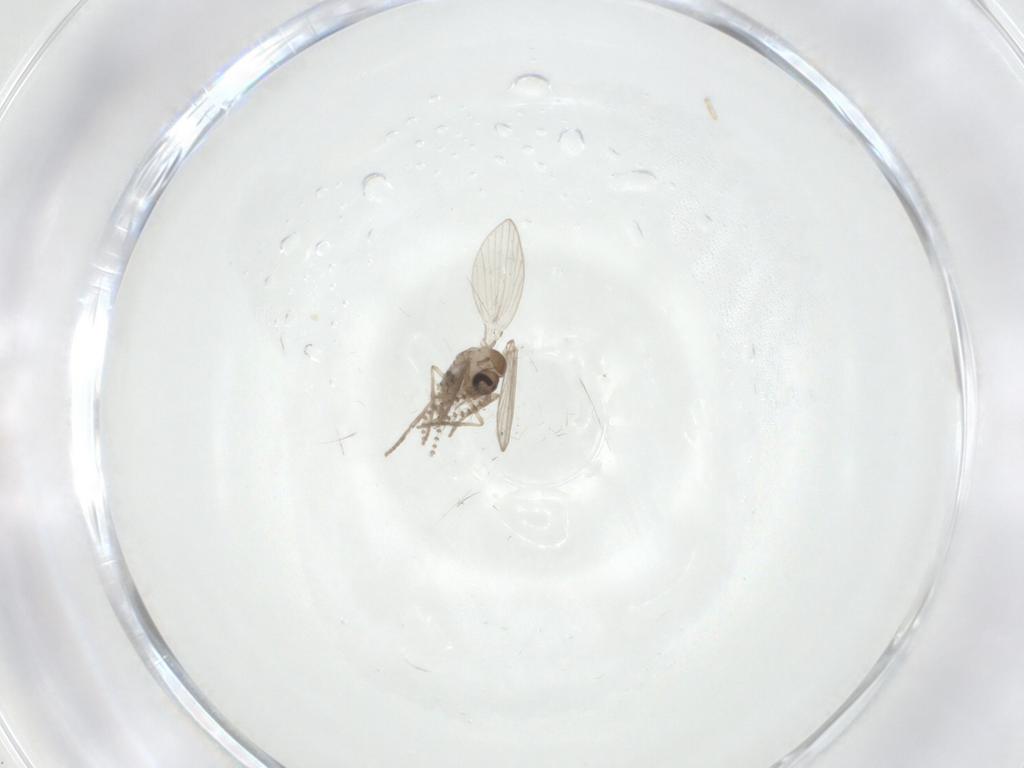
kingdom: Animalia
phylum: Arthropoda
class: Insecta
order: Diptera
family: Psychodidae
